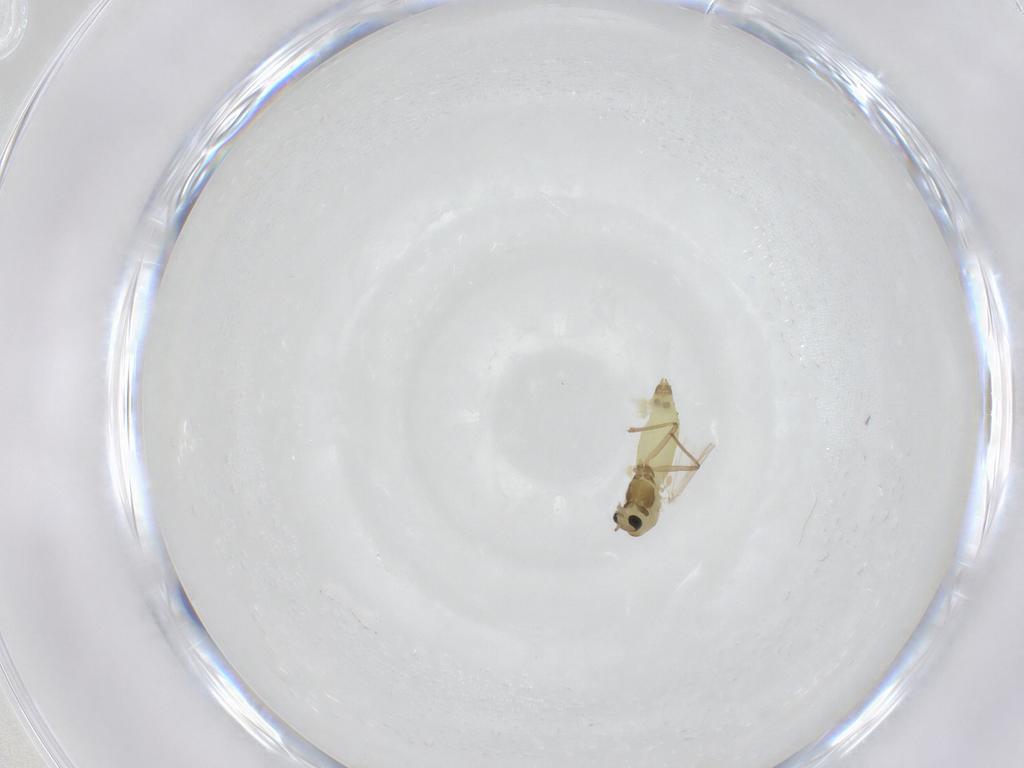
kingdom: Animalia
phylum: Arthropoda
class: Insecta
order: Diptera
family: Chironomidae
